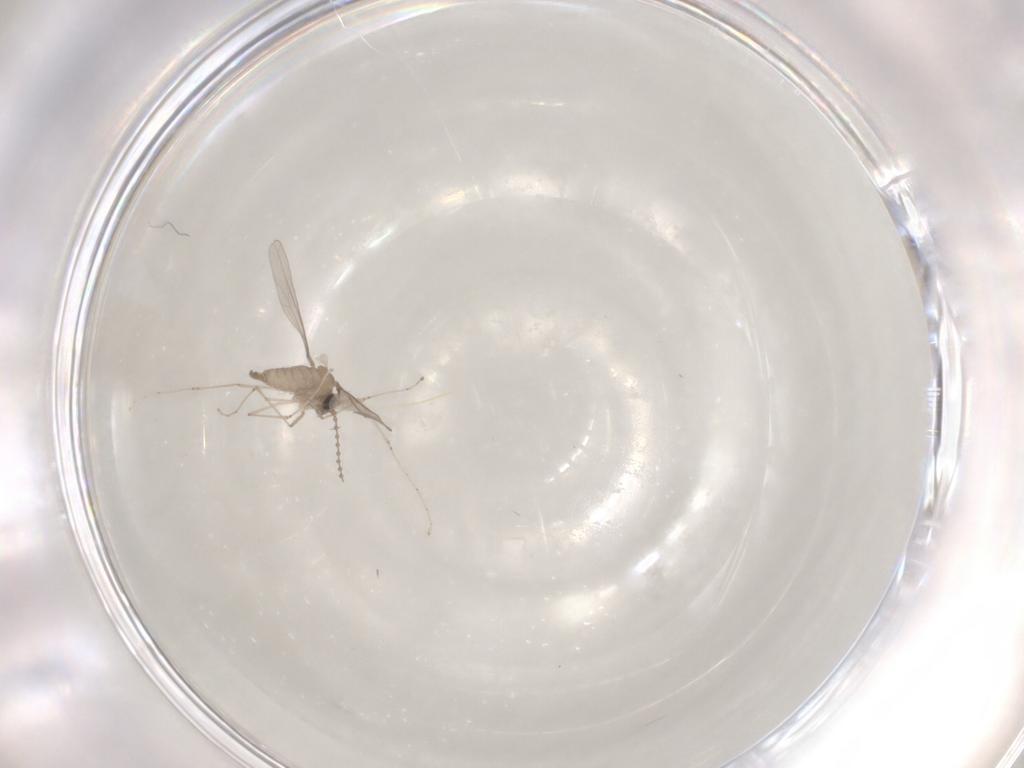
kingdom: Animalia
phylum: Arthropoda
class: Insecta
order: Diptera
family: Cecidomyiidae
